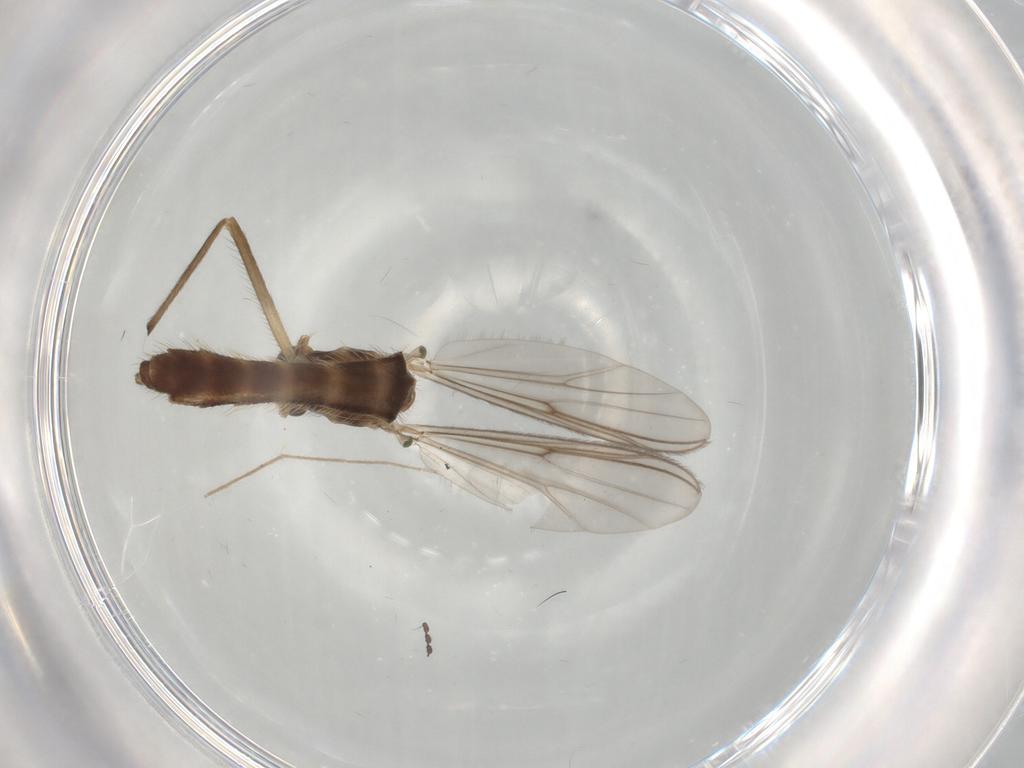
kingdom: Animalia
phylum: Arthropoda
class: Insecta
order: Diptera
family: Chironomidae
